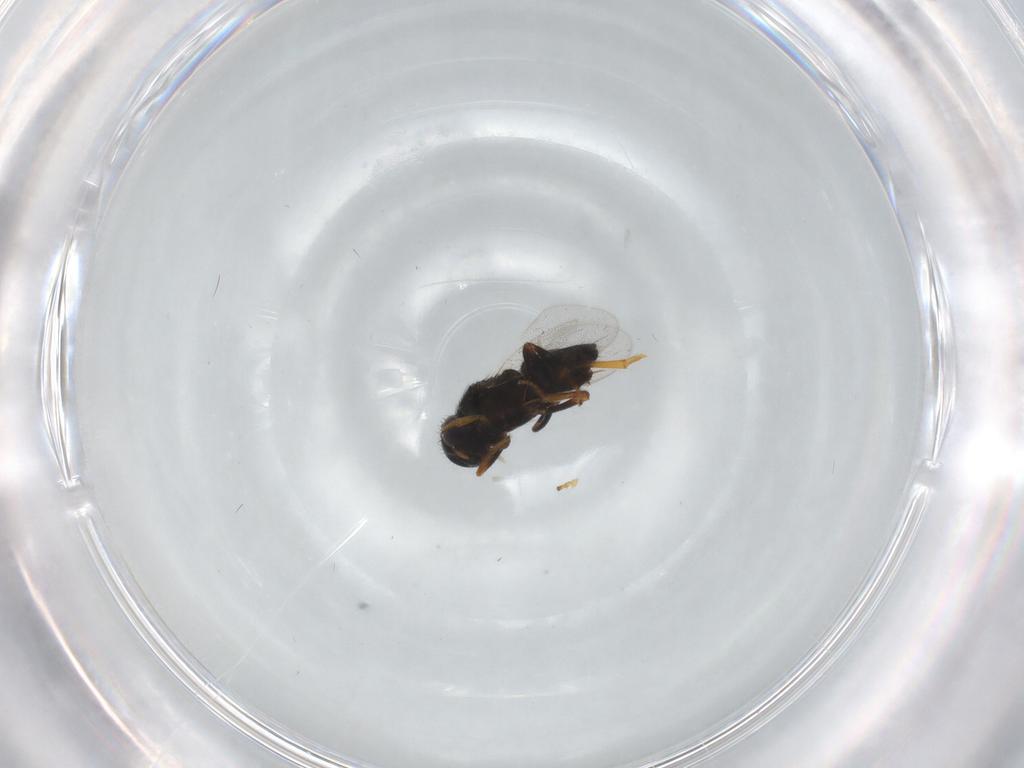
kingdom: Animalia
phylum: Arthropoda
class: Insecta
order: Hymenoptera
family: Encyrtidae
